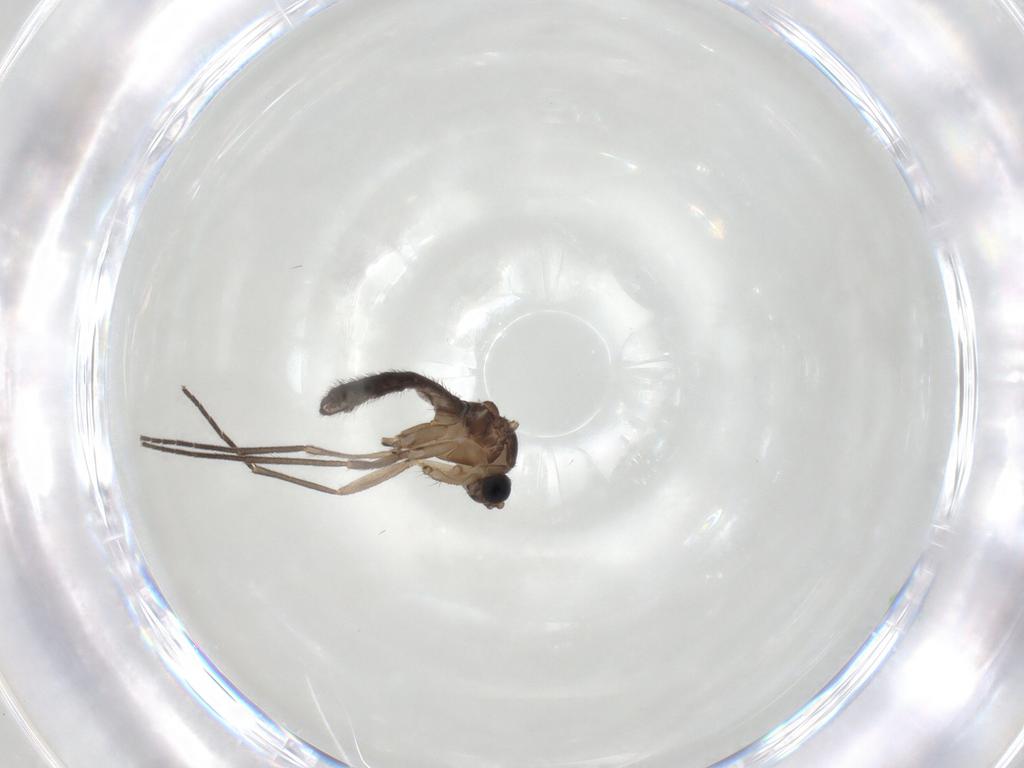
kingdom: Animalia
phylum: Arthropoda
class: Insecta
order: Diptera
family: Sciaridae
